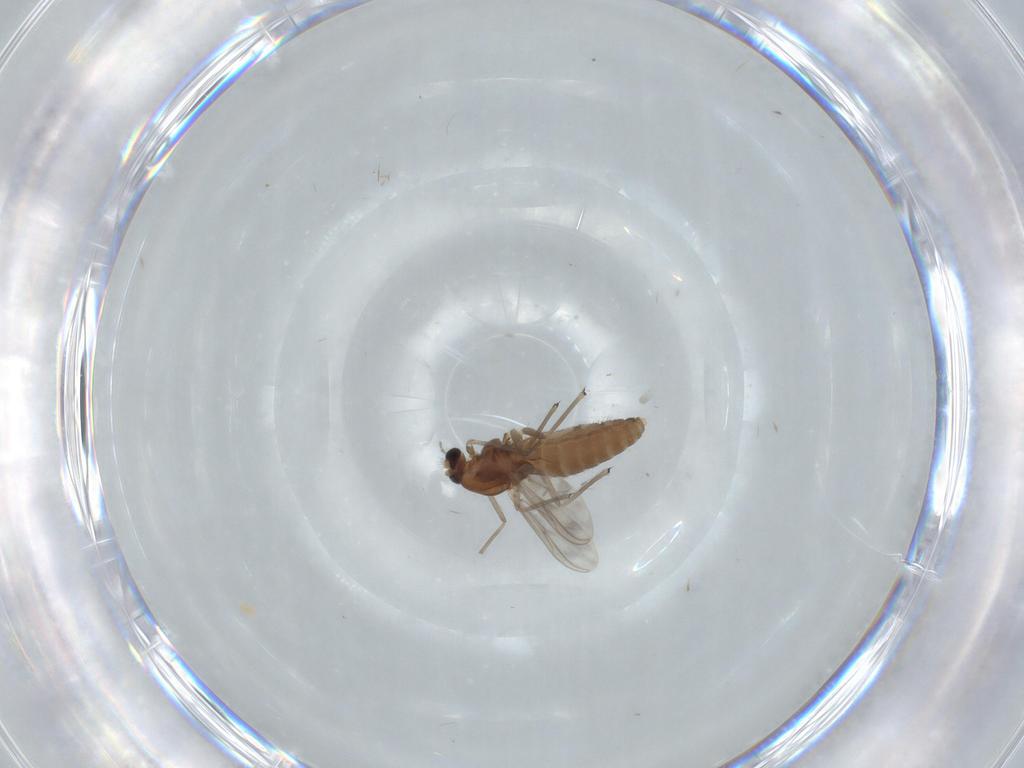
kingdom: Animalia
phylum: Arthropoda
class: Insecta
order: Diptera
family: Chironomidae
